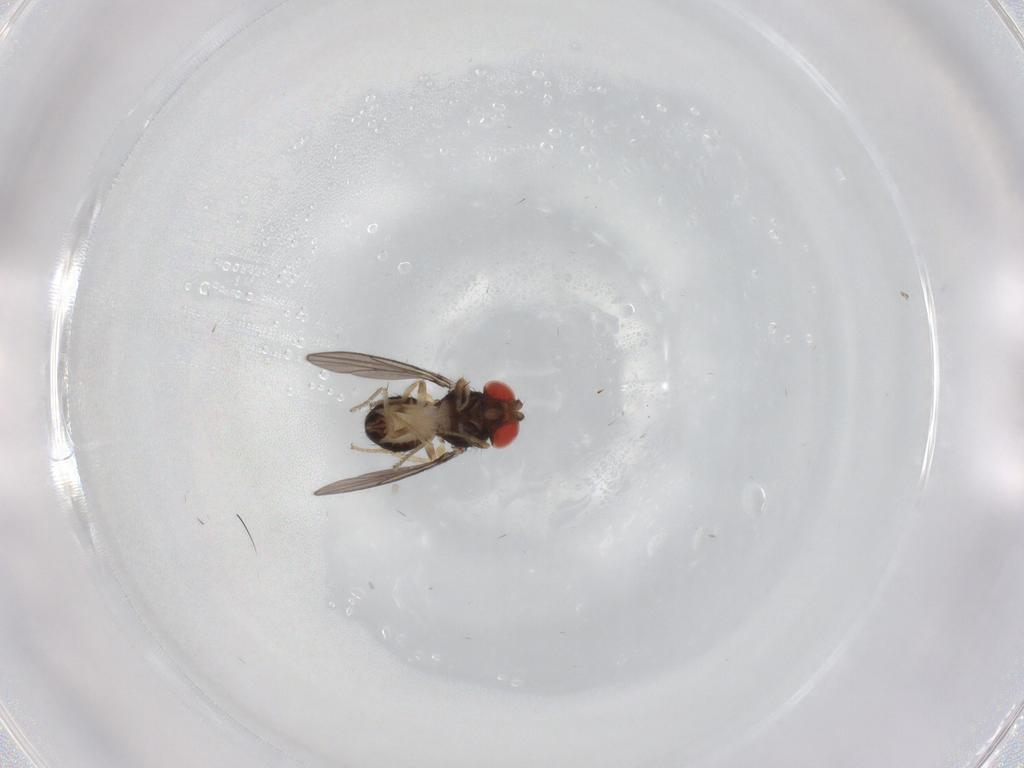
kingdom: Animalia
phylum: Arthropoda
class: Insecta
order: Diptera
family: Drosophilidae
